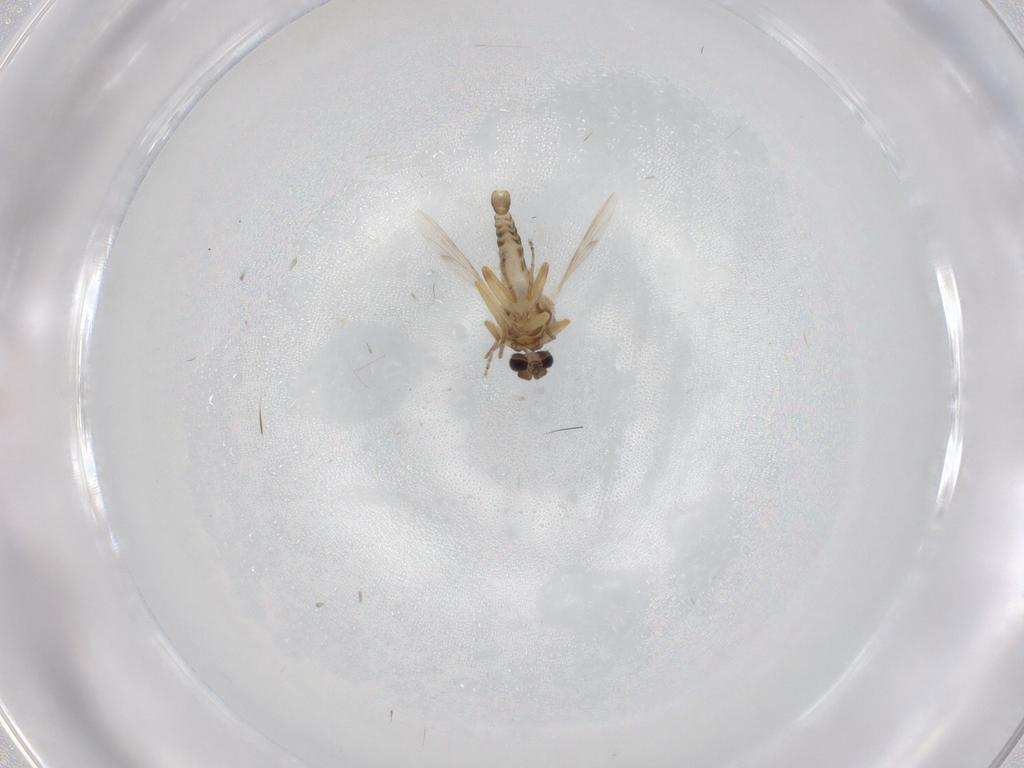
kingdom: Animalia
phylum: Arthropoda
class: Insecta
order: Diptera
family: Ceratopogonidae
